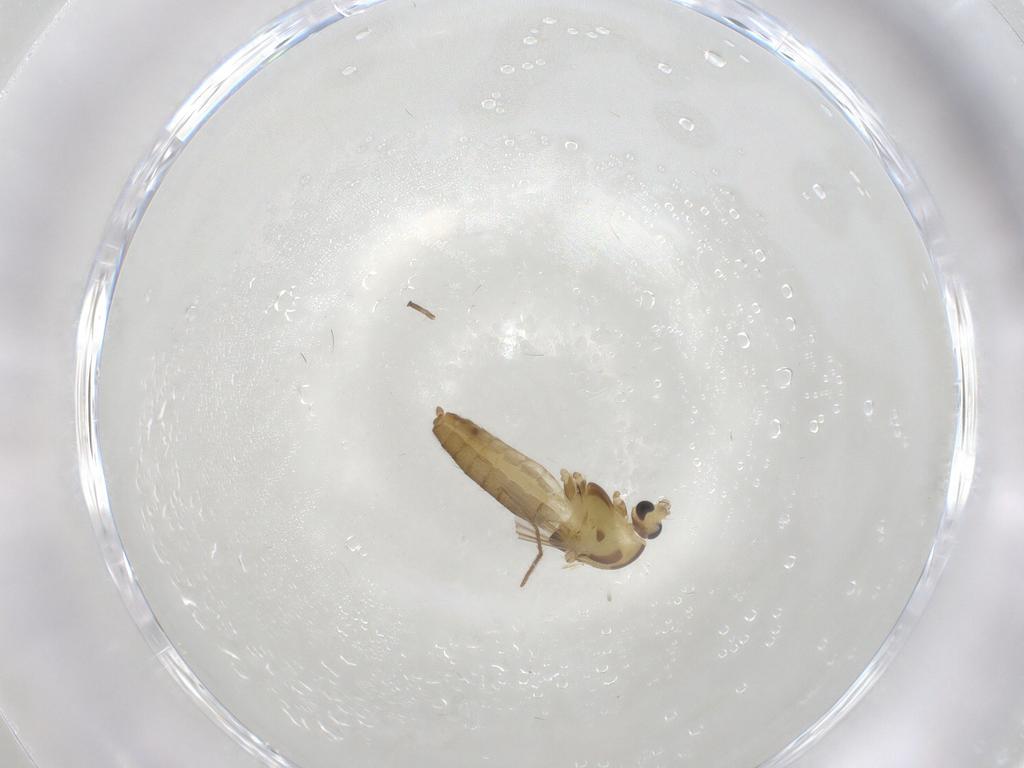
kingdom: Animalia
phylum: Arthropoda
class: Insecta
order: Diptera
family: Chironomidae
